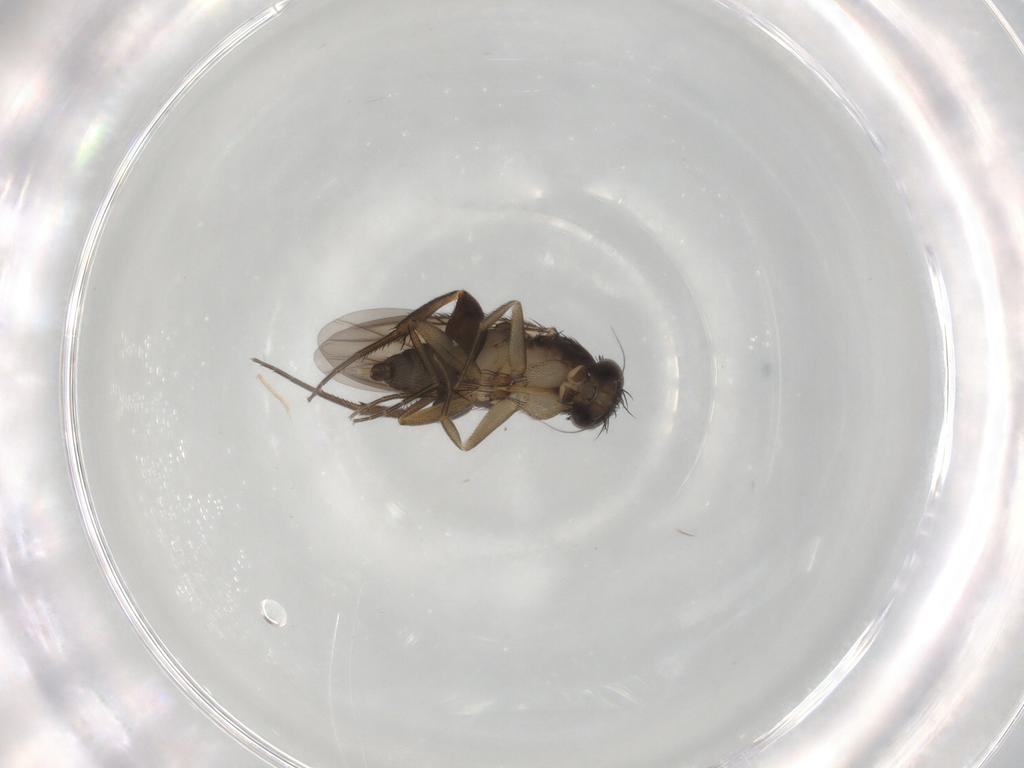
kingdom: Animalia
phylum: Arthropoda
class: Insecta
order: Diptera
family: Phoridae
